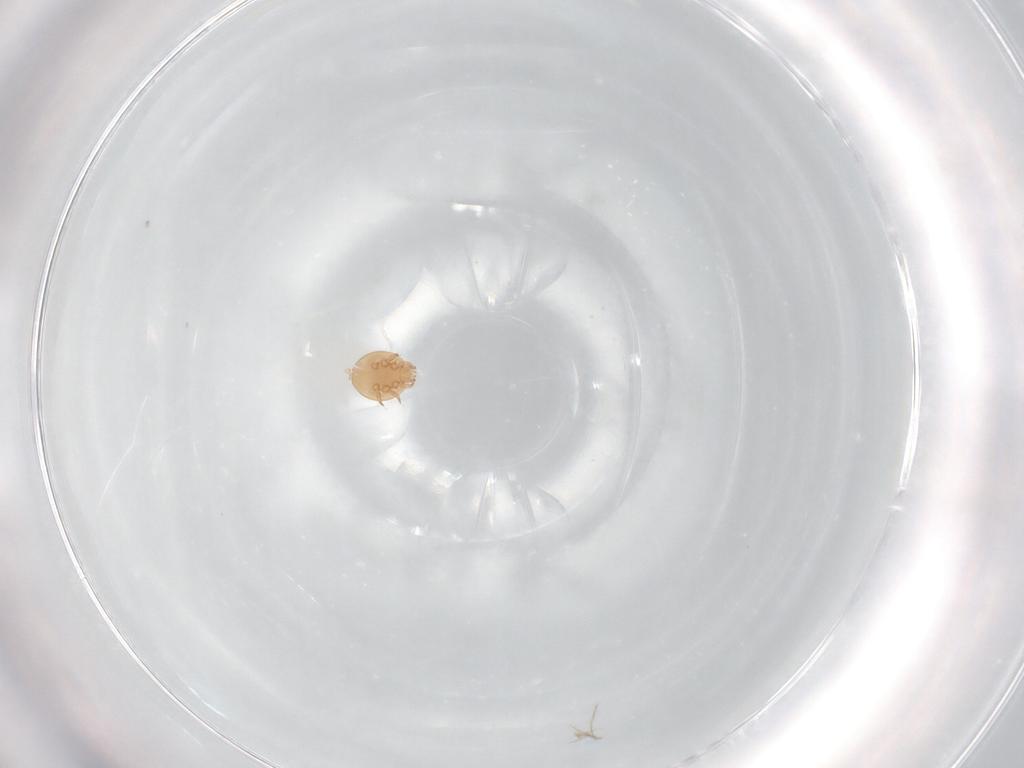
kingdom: Animalia
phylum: Arthropoda
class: Arachnida
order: Mesostigmata
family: Trematuridae
